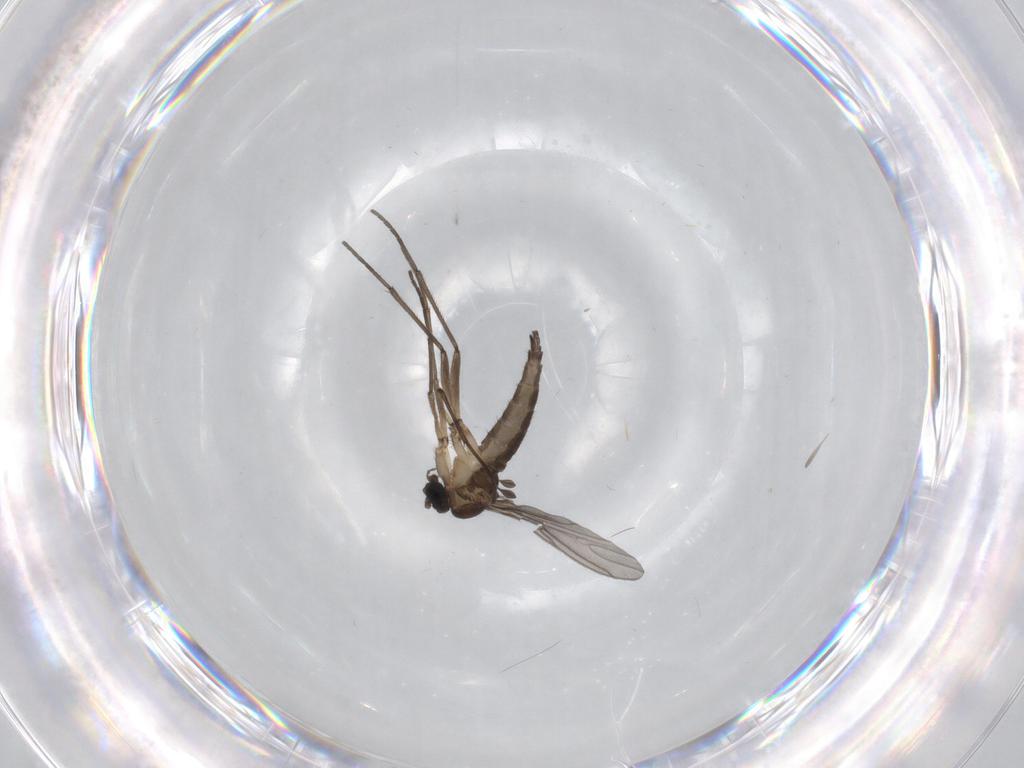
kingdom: Animalia
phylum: Arthropoda
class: Insecta
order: Diptera
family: Sciaridae
